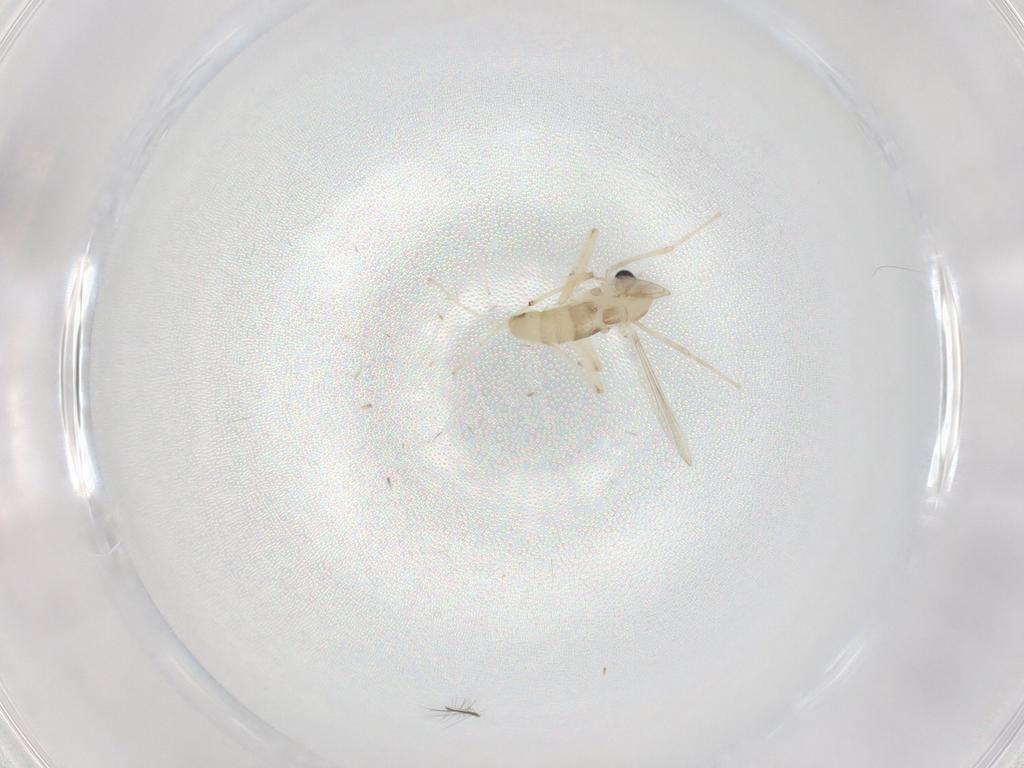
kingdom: Animalia
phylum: Arthropoda
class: Insecta
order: Diptera
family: Chironomidae
